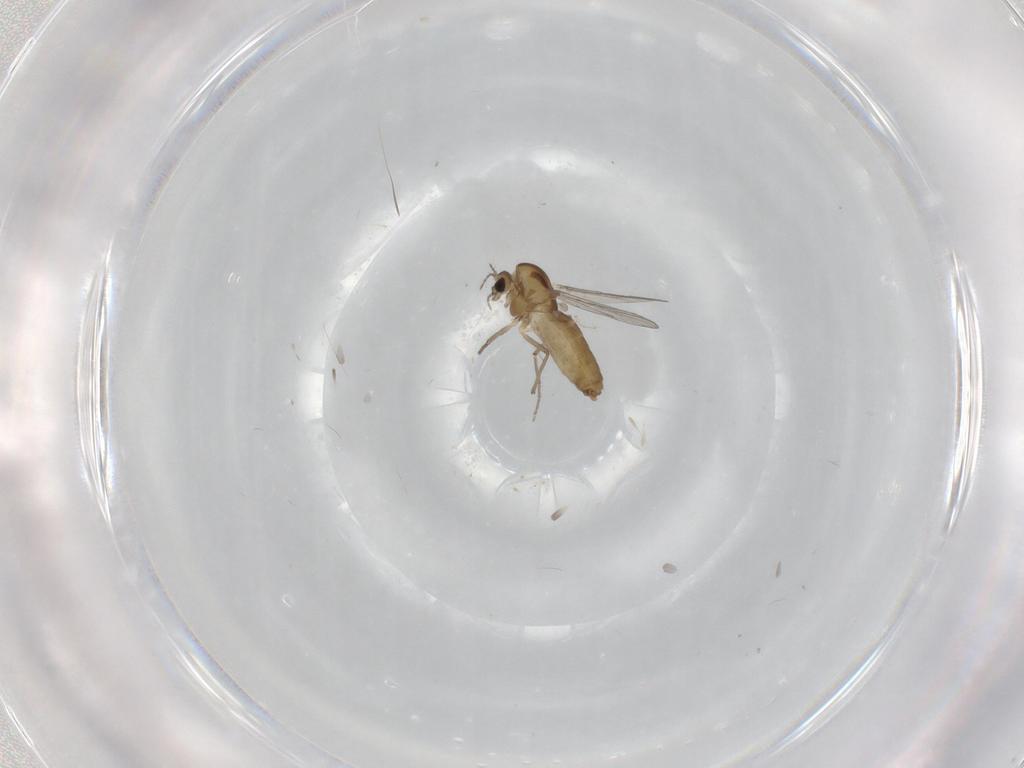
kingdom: Animalia
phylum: Arthropoda
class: Insecta
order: Diptera
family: Chironomidae
